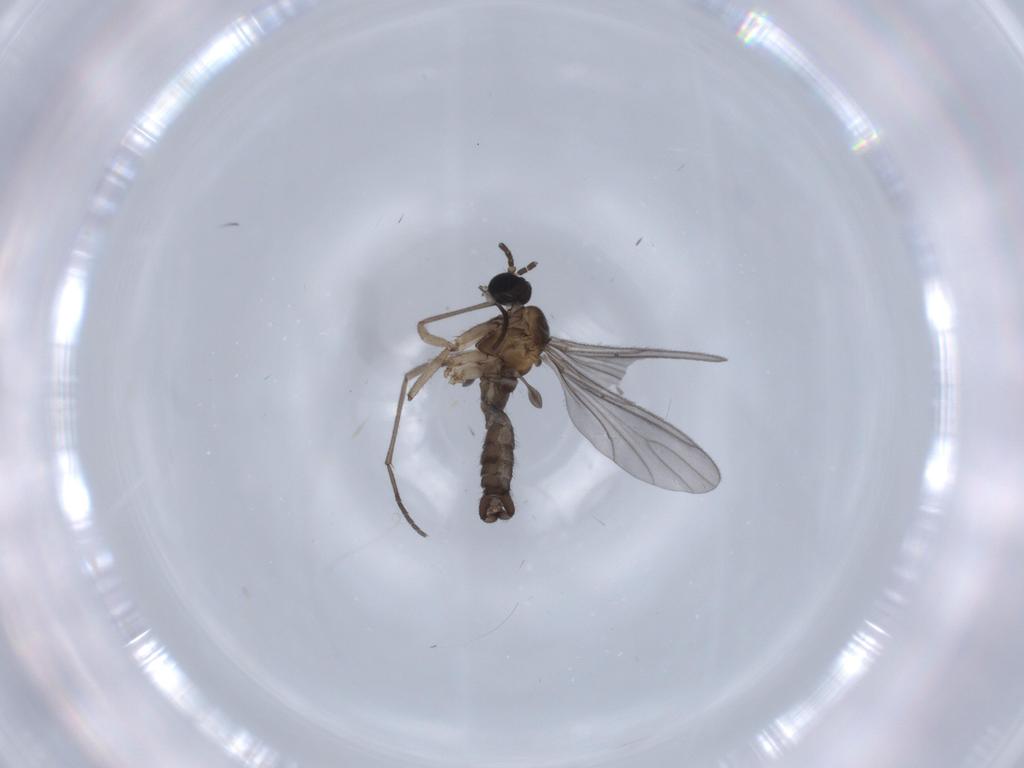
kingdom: Animalia
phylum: Arthropoda
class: Insecta
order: Diptera
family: Sciaridae
